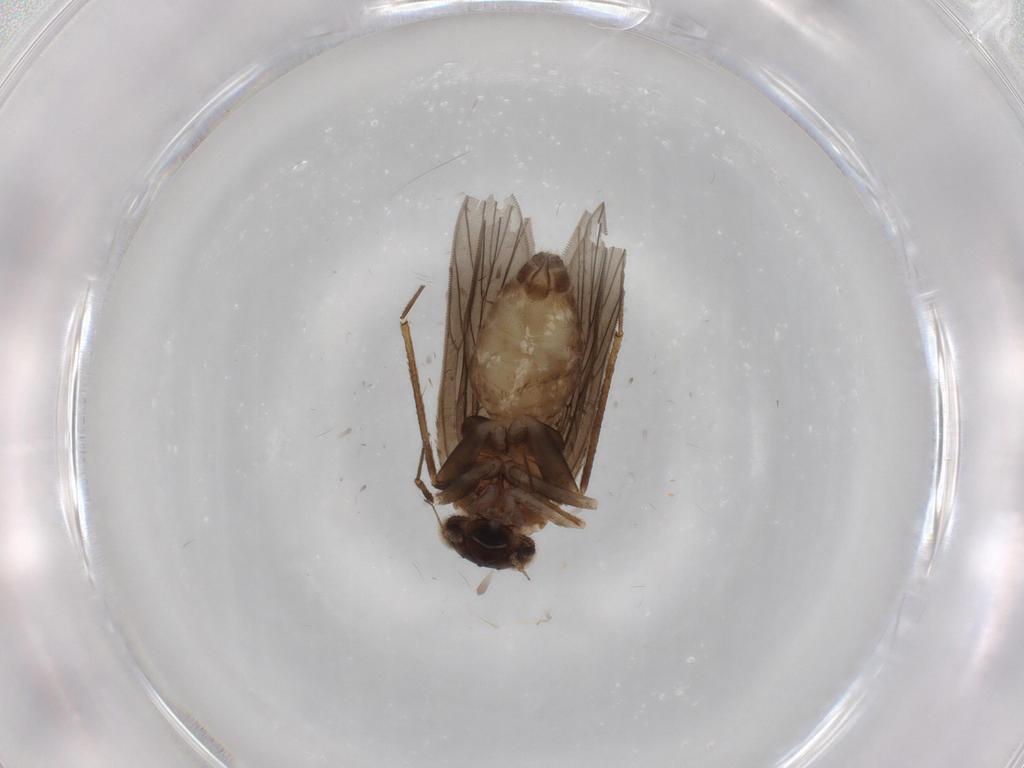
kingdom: Animalia
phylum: Arthropoda
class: Insecta
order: Psocodea
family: Lepidopsocidae
